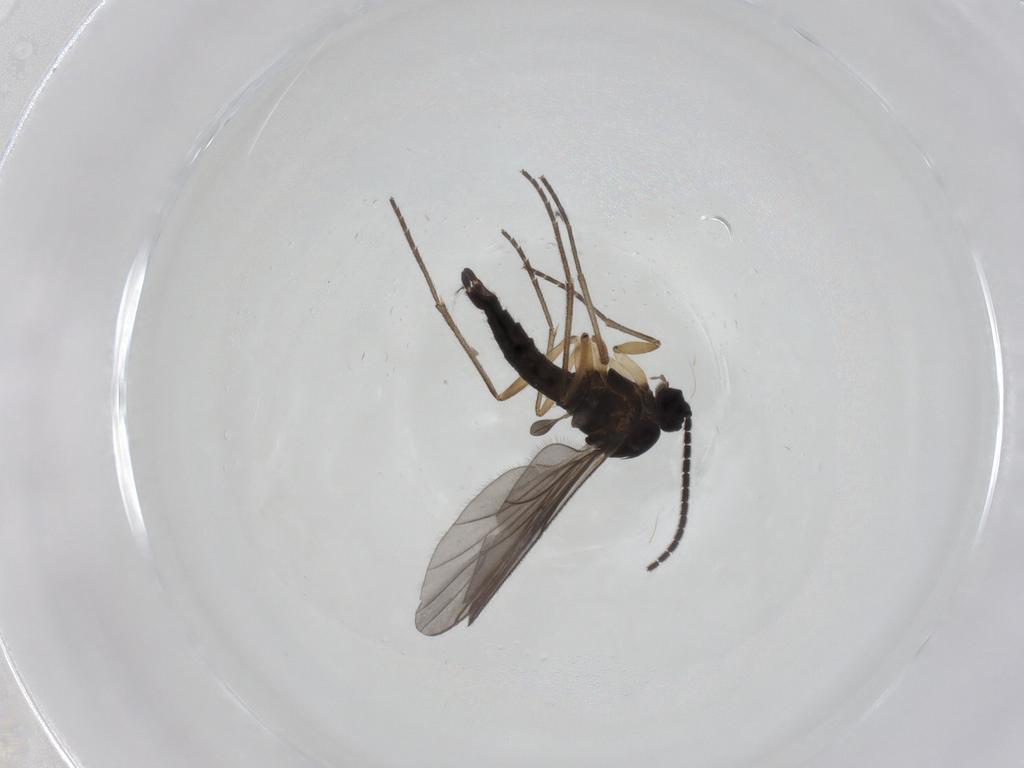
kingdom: Animalia
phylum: Arthropoda
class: Insecta
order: Diptera
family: Sciaridae
